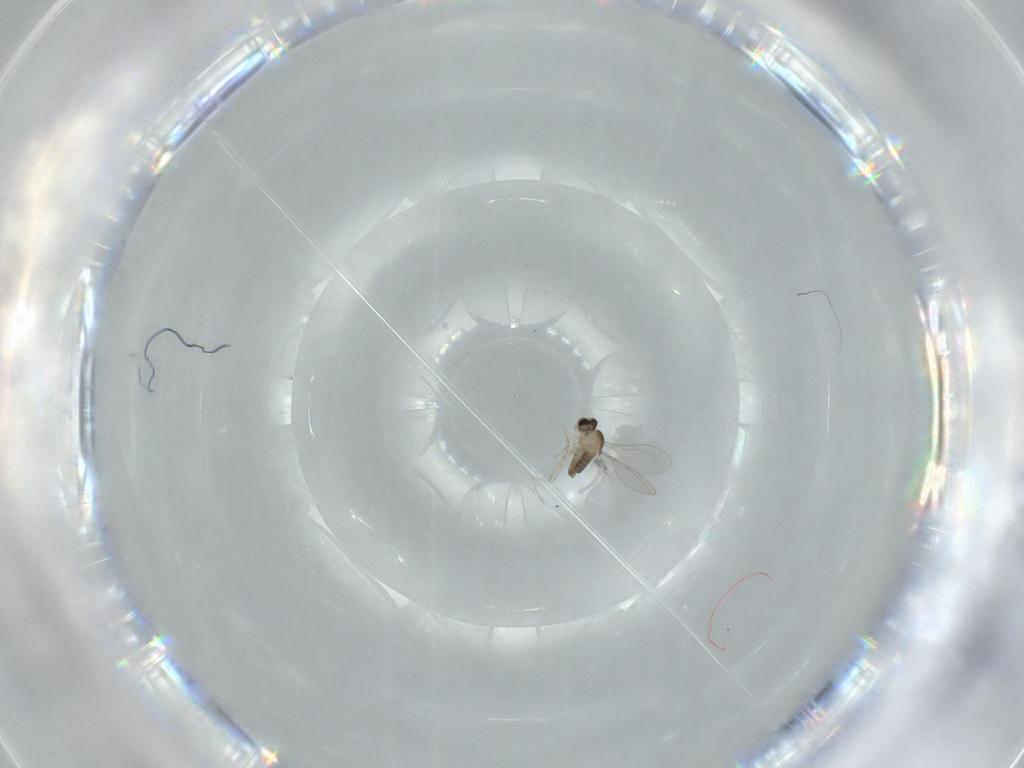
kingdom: Animalia
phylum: Arthropoda
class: Insecta
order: Diptera
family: Cecidomyiidae
